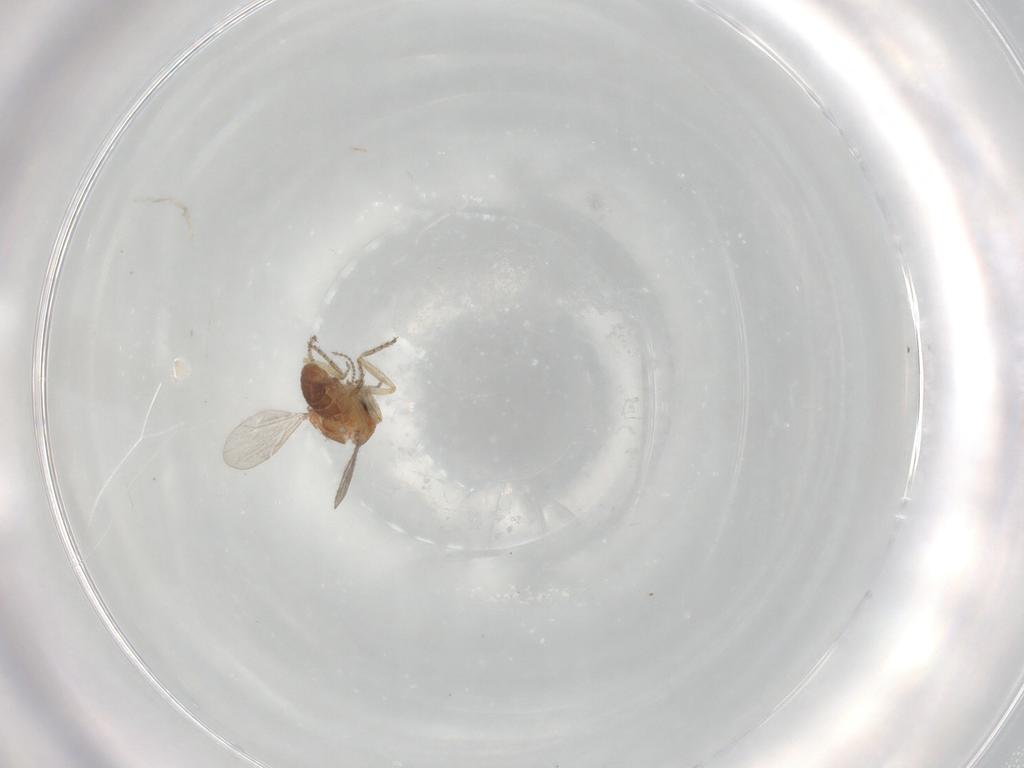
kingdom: Animalia
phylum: Arthropoda
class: Insecta
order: Diptera
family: Ceratopogonidae
